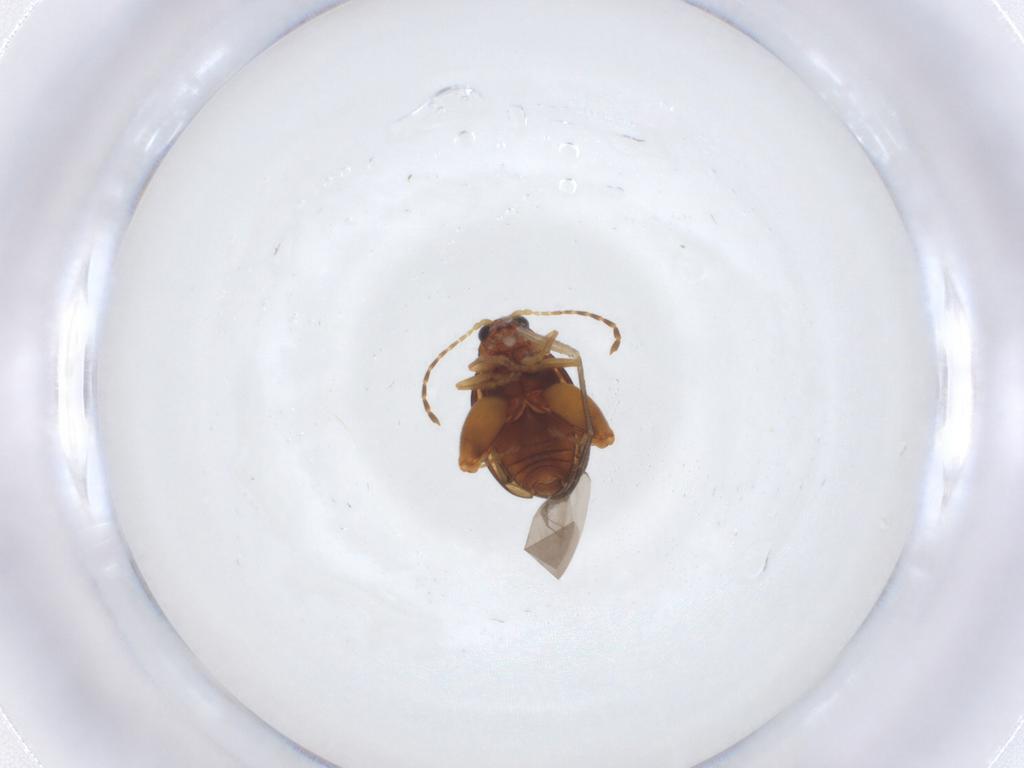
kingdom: Animalia
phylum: Arthropoda
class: Insecta
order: Coleoptera
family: Chrysomelidae
